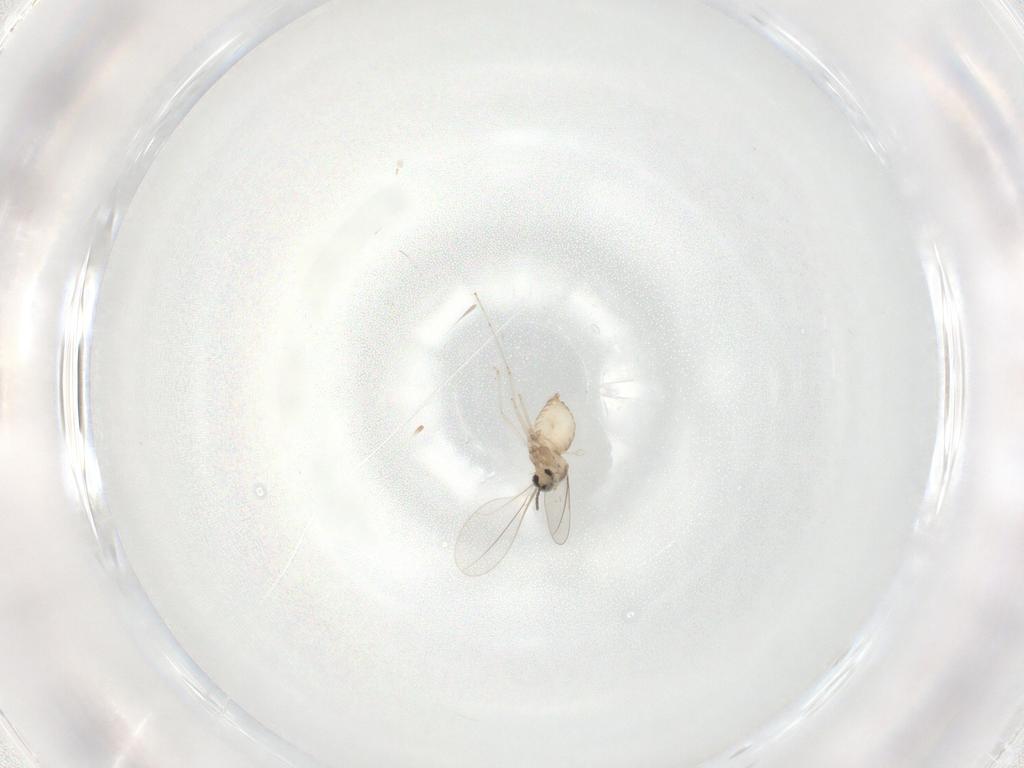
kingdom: Animalia
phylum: Arthropoda
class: Insecta
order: Diptera
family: Cecidomyiidae
